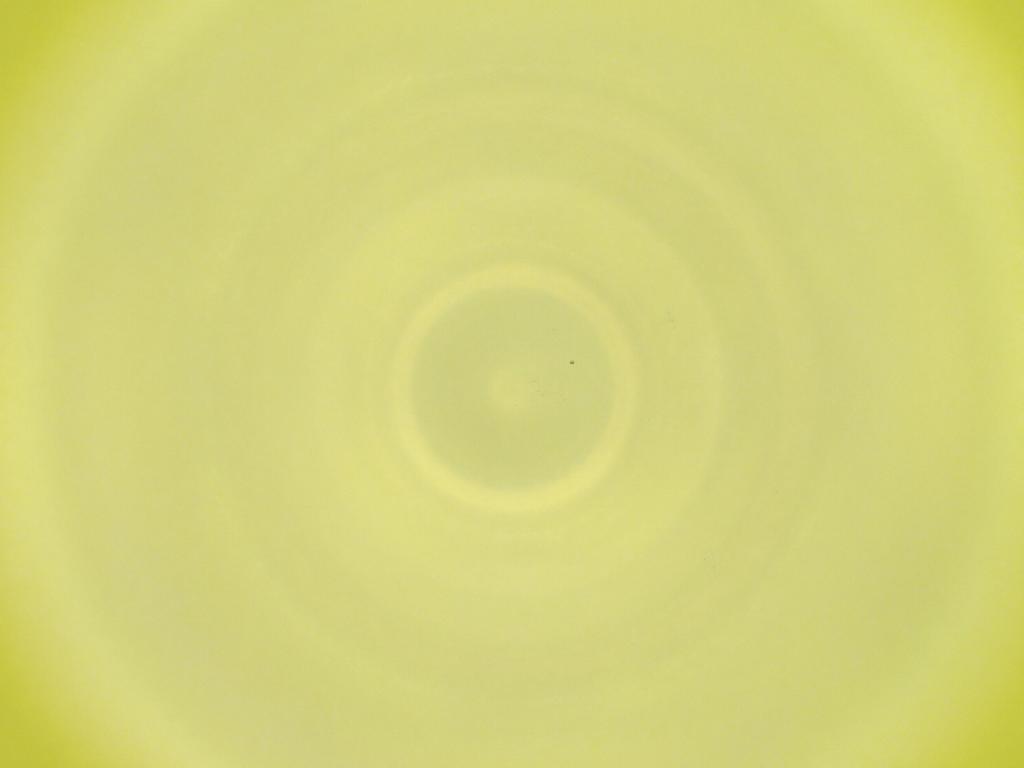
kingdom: Animalia
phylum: Arthropoda
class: Insecta
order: Diptera
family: Cecidomyiidae
